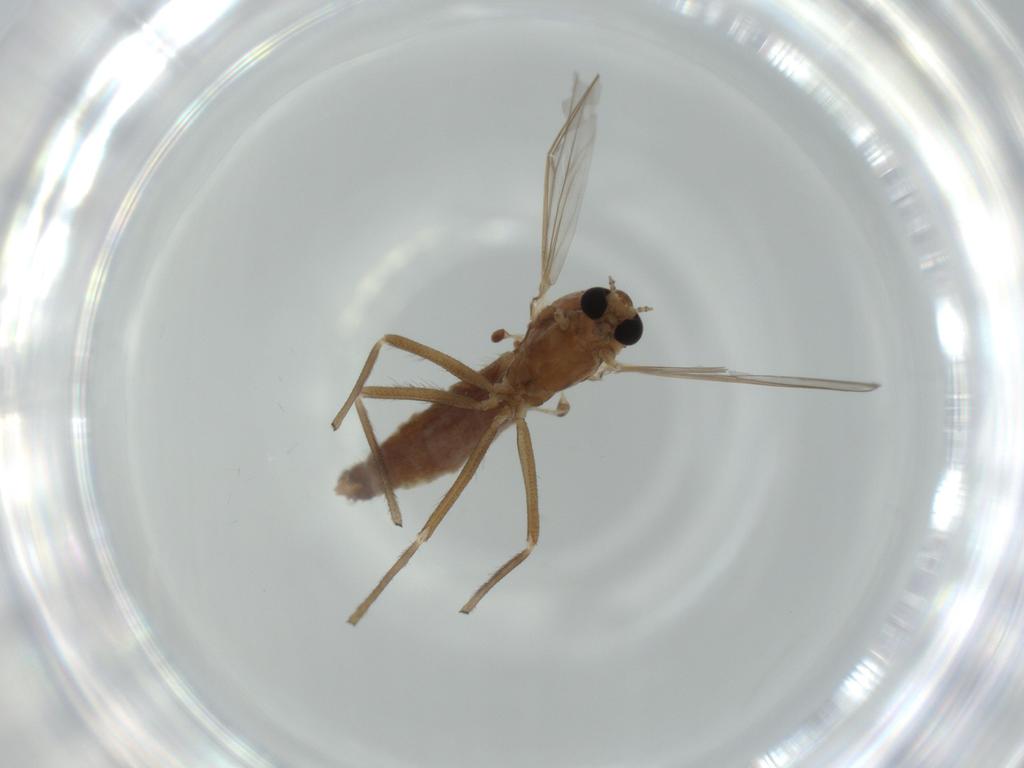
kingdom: Animalia
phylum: Arthropoda
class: Insecta
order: Diptera
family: Chironomidae
